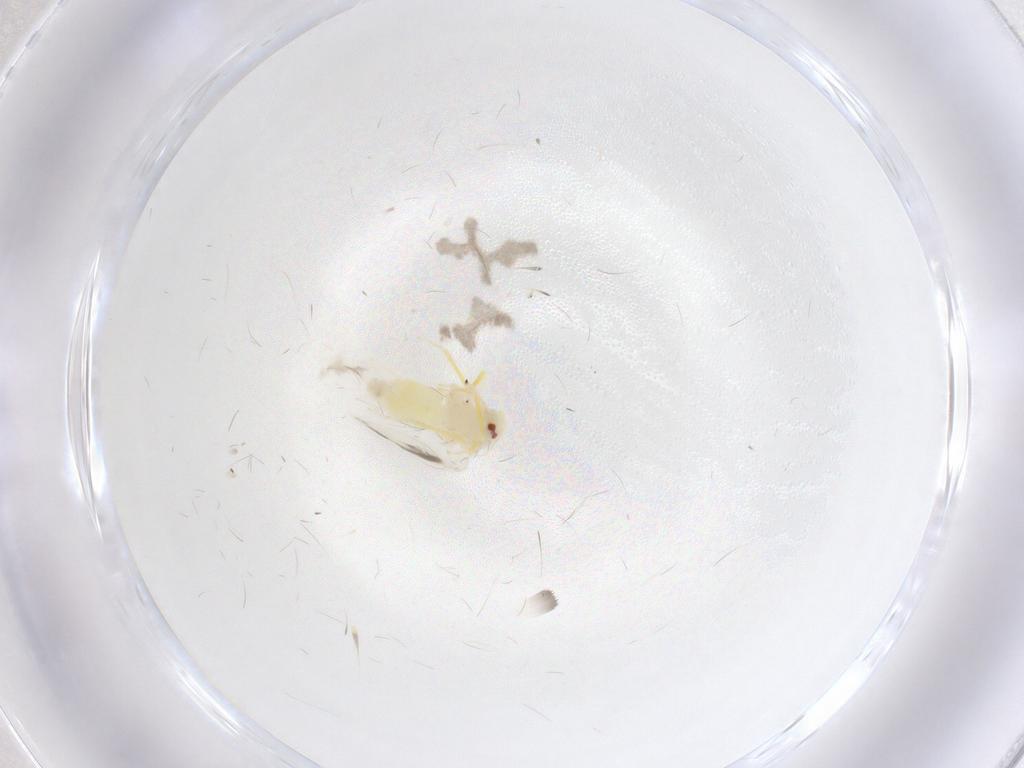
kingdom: Animalia
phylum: Arthropoda
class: Insecta
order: Hemiptera
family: Aleyrodidae
